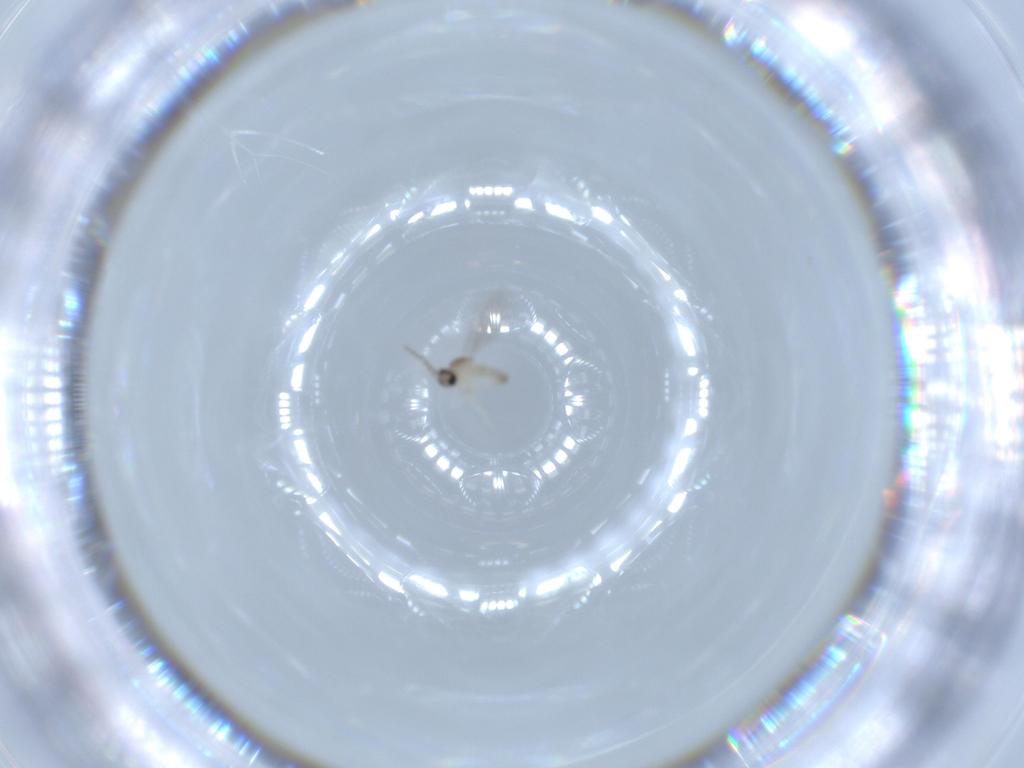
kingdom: Animalia
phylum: Arthropoda
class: Insecta
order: Diptera
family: Cecidomyiidae
